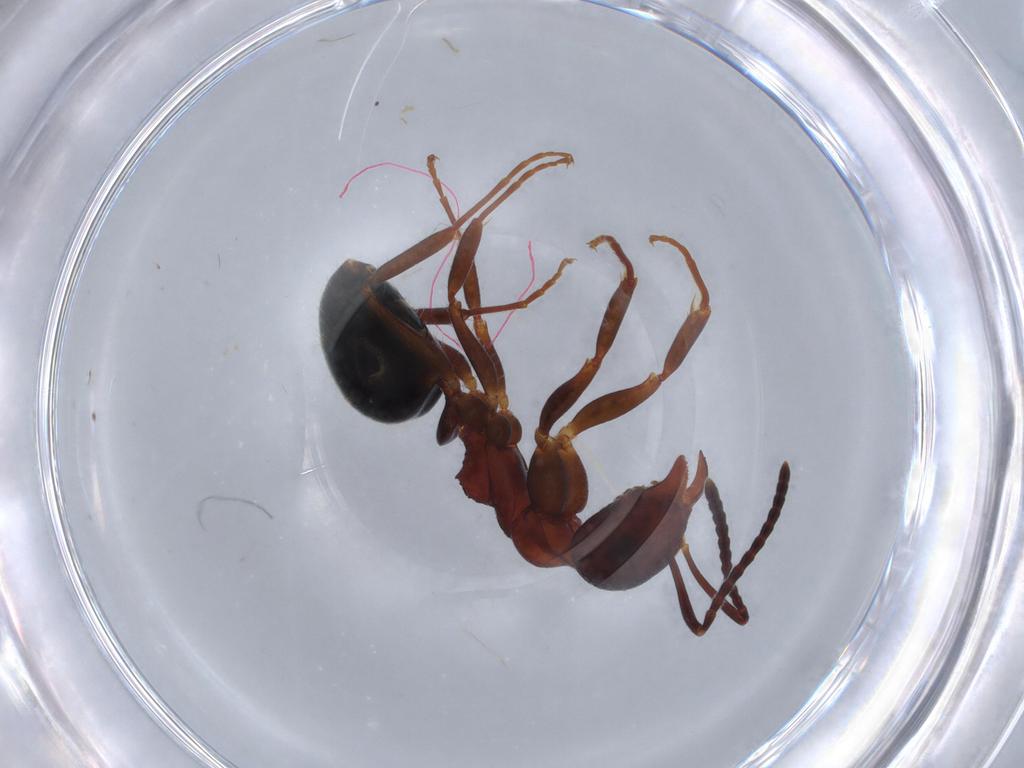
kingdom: Animalia
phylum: Arthropoda
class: Insecta
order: Hymenoptera
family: Formicidae
